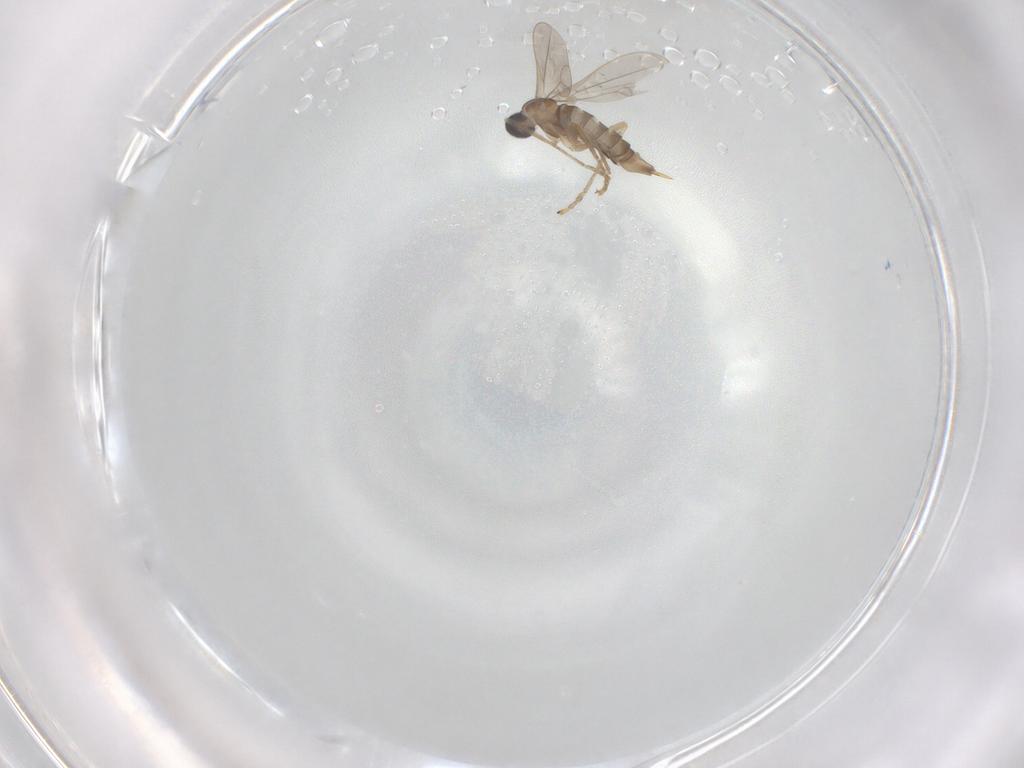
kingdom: Animalia
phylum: Arthropoda
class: Insecta
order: Diptera
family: Cecidomyiidae
